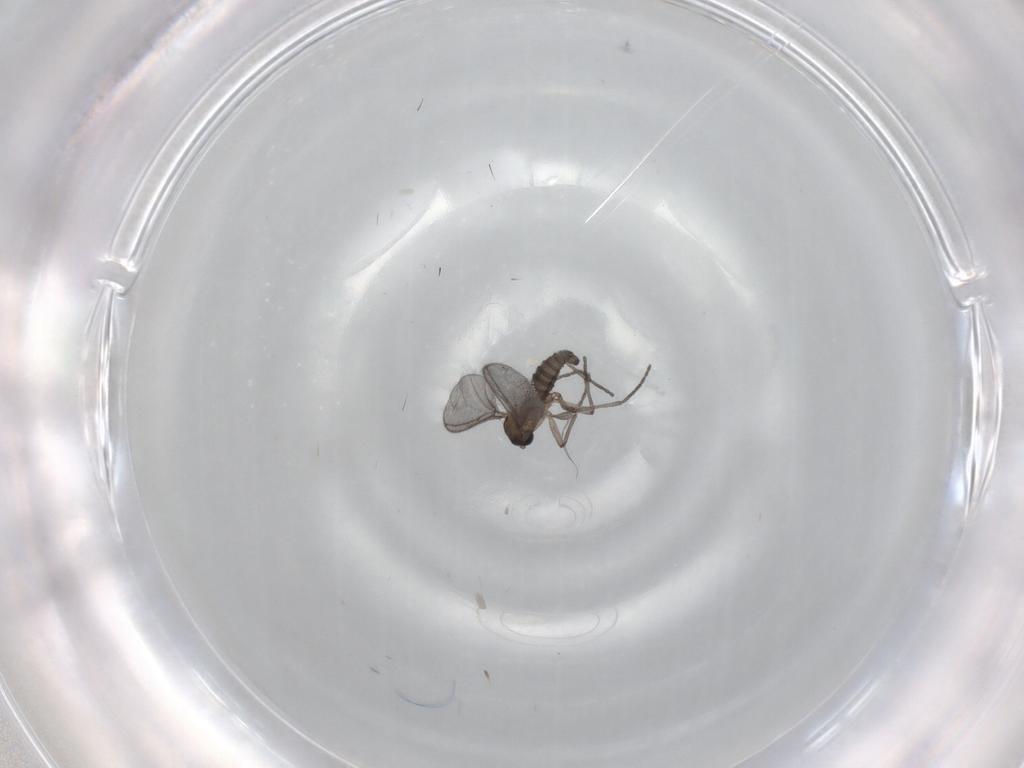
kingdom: Animalia
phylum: Arthropoda
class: Insecta
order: Diptera
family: Sciaridae
